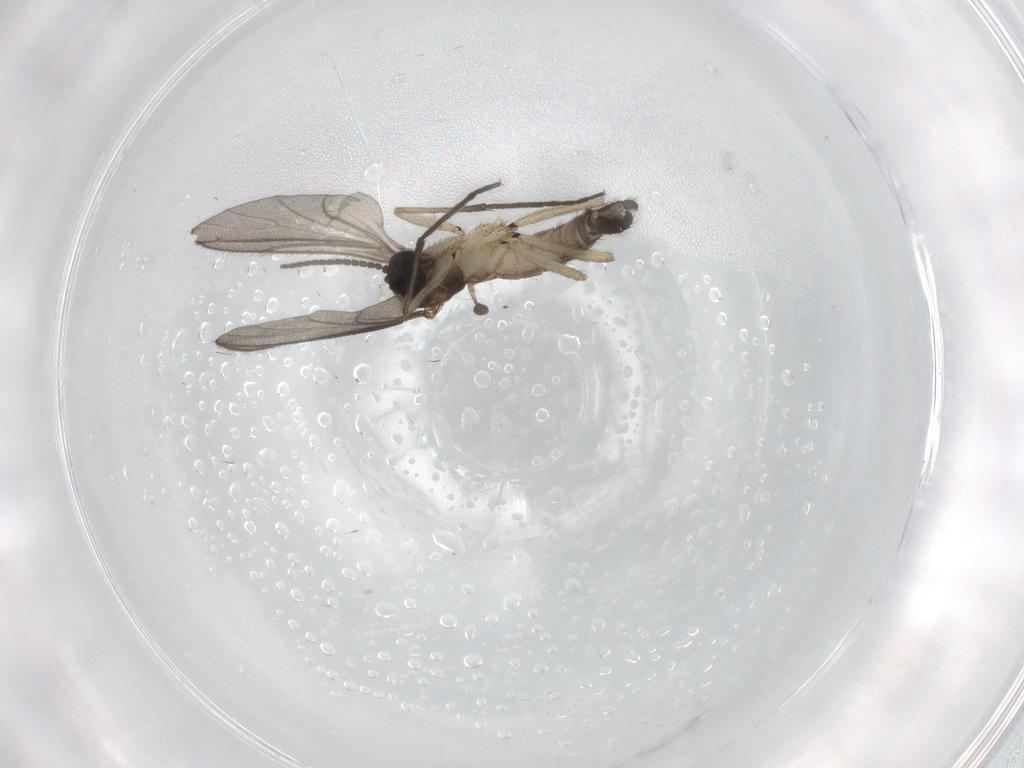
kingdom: Animalia
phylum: Arthropoda
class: Insecta
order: Diptera
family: Sciaridae
